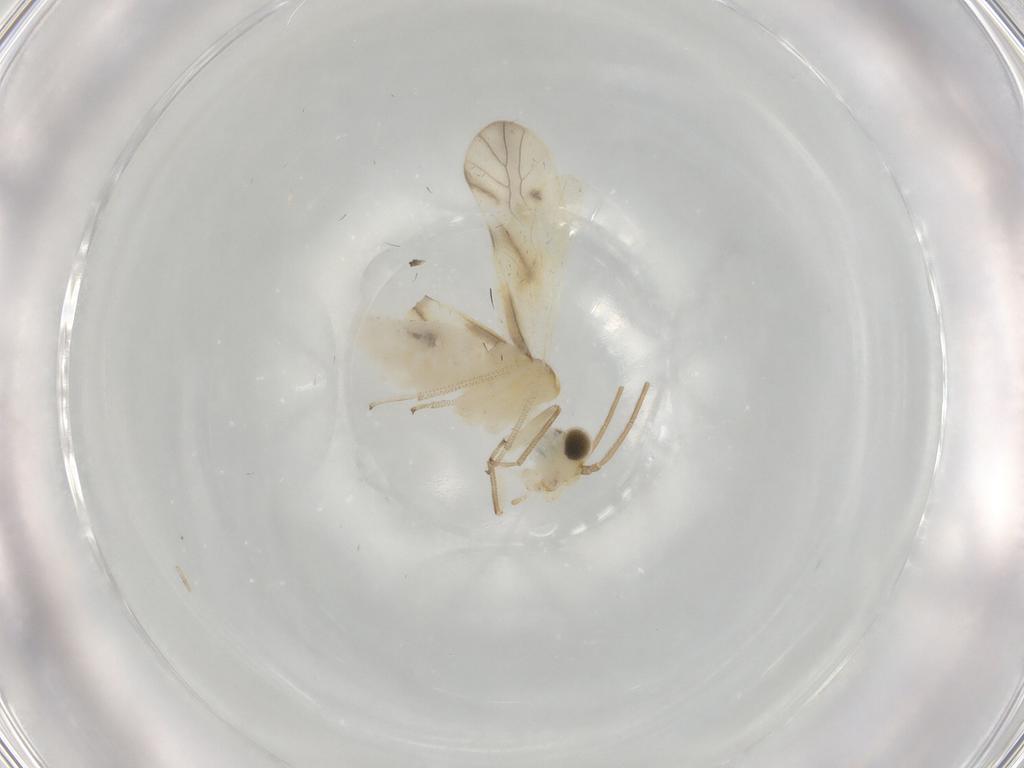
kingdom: Animalia
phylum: Arthropoda
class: Insecta
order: Psocodea
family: Caeciliusidae
